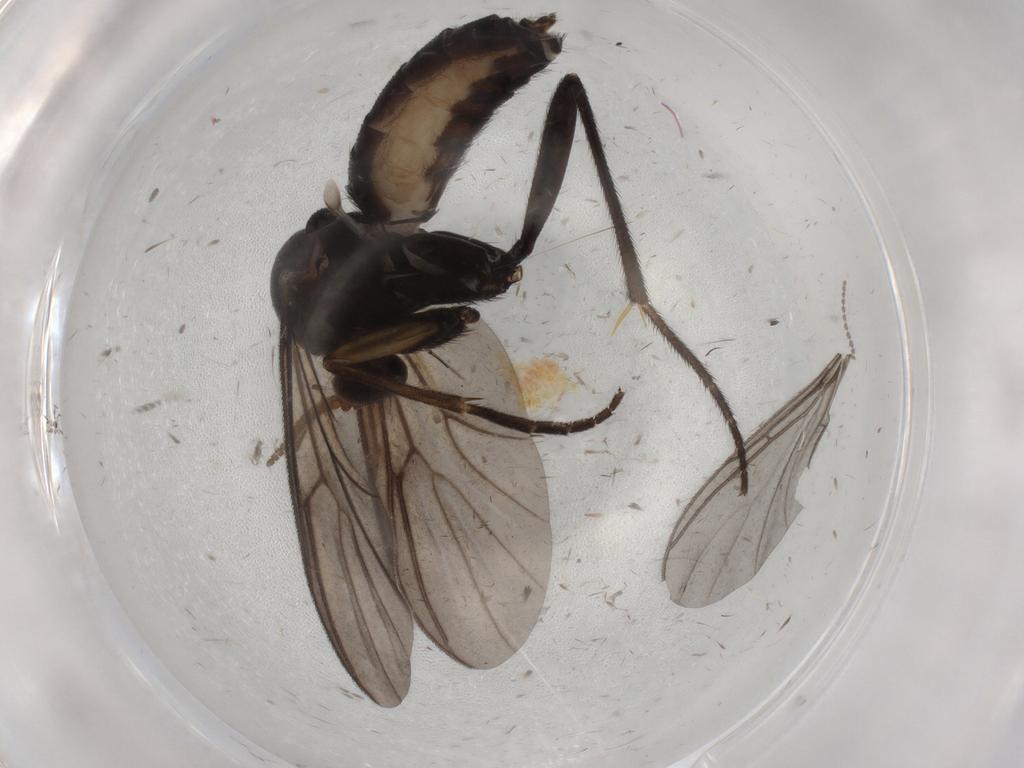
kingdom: Animalia
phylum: Arthropoda
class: Insecta
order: Diptera
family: Mycetophilidae
